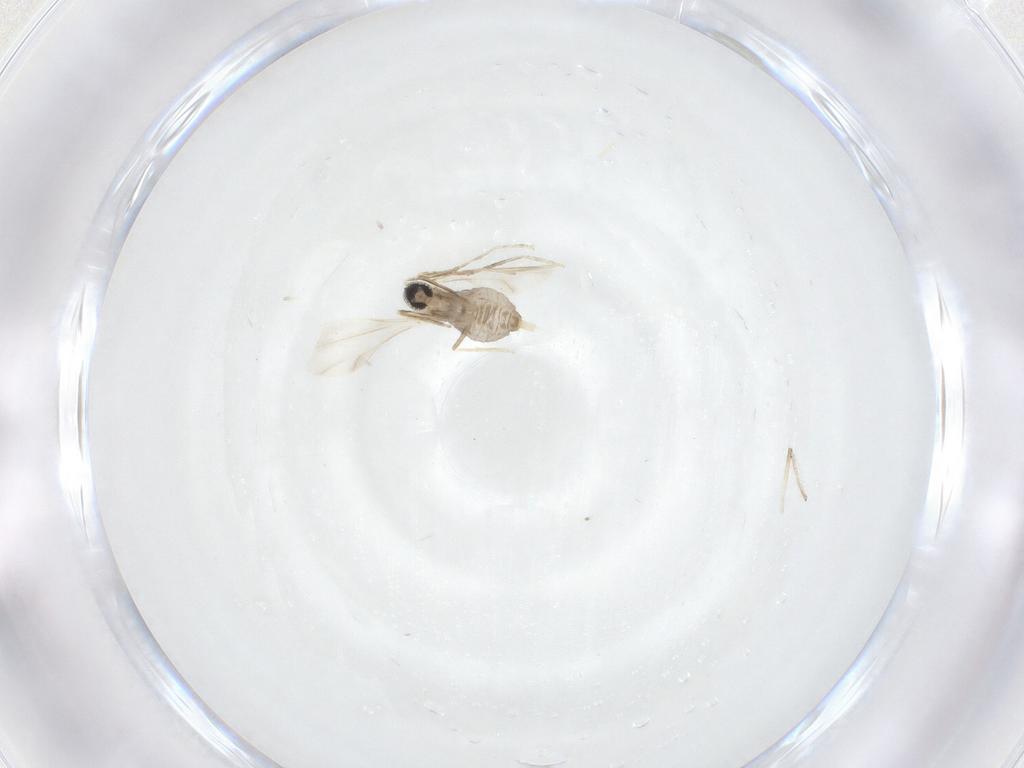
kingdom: Animalia
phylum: Arthropoda
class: Insecta
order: Diptera
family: Cecidomyiidae
